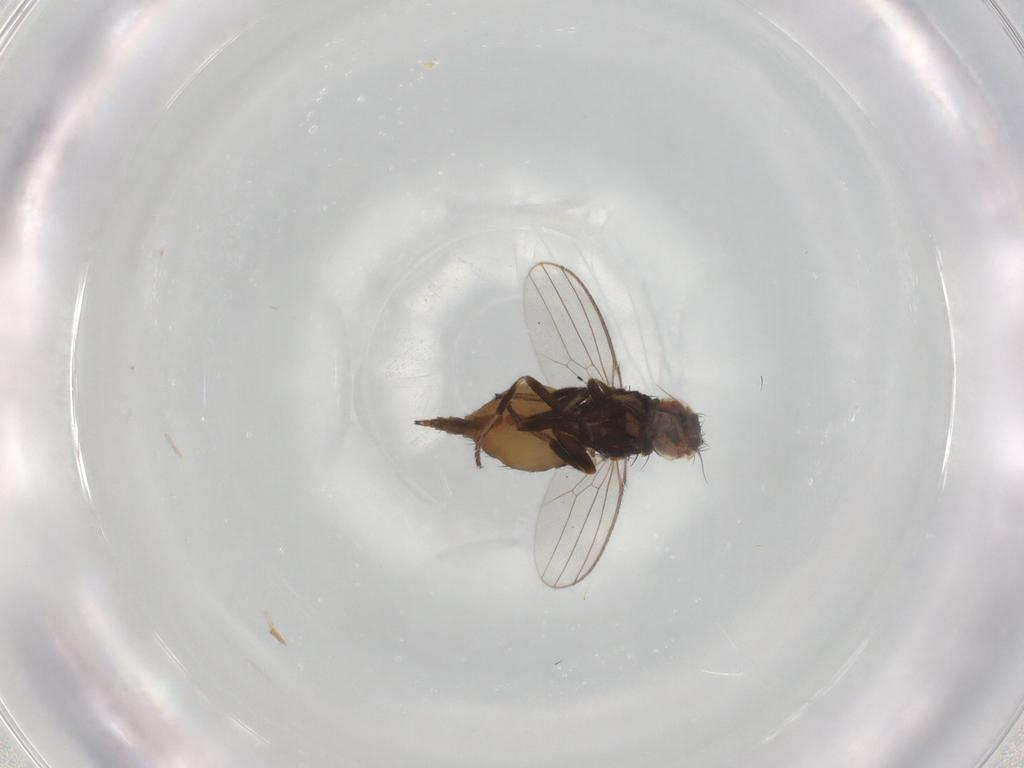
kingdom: Animalia
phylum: Arthropoda
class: Insecta
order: Diptera
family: Milichiidae
